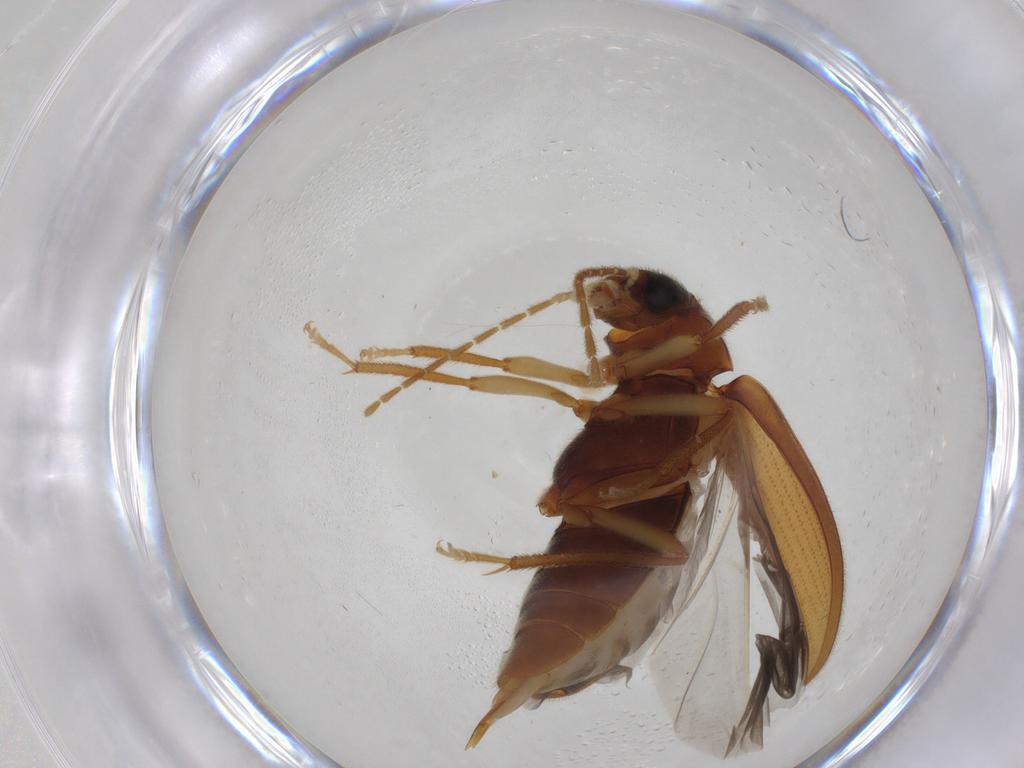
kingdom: Animalia
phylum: Arthropoda
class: Insecta
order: Coleoptera
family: Ptilodactylidae
